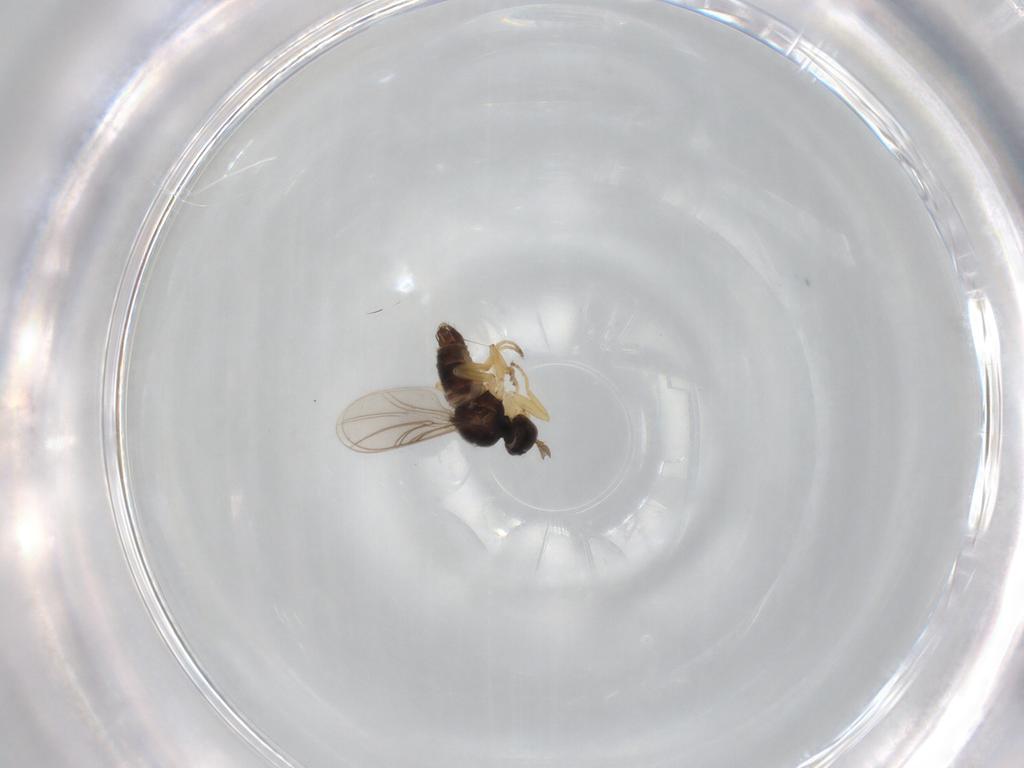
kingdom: Animalia
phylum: Arthropoda
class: Insecta
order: Diptera
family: Hybotidae
